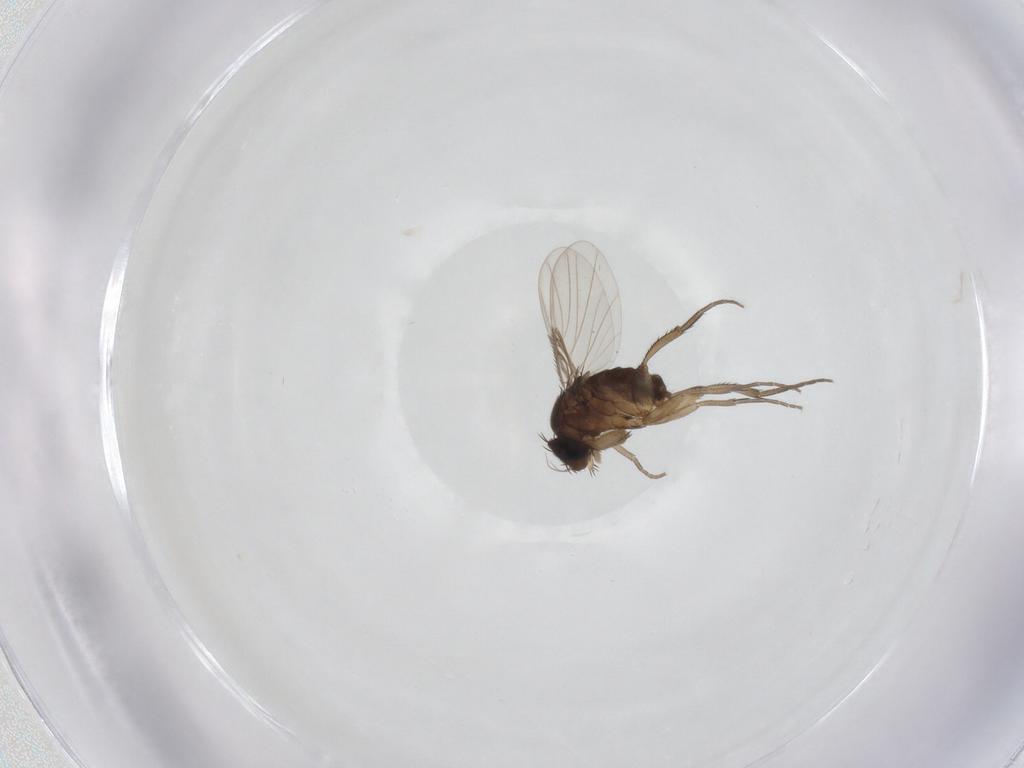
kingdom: Animalia
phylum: Arthropoda
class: Insecta
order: Diptera
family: Phoridae
